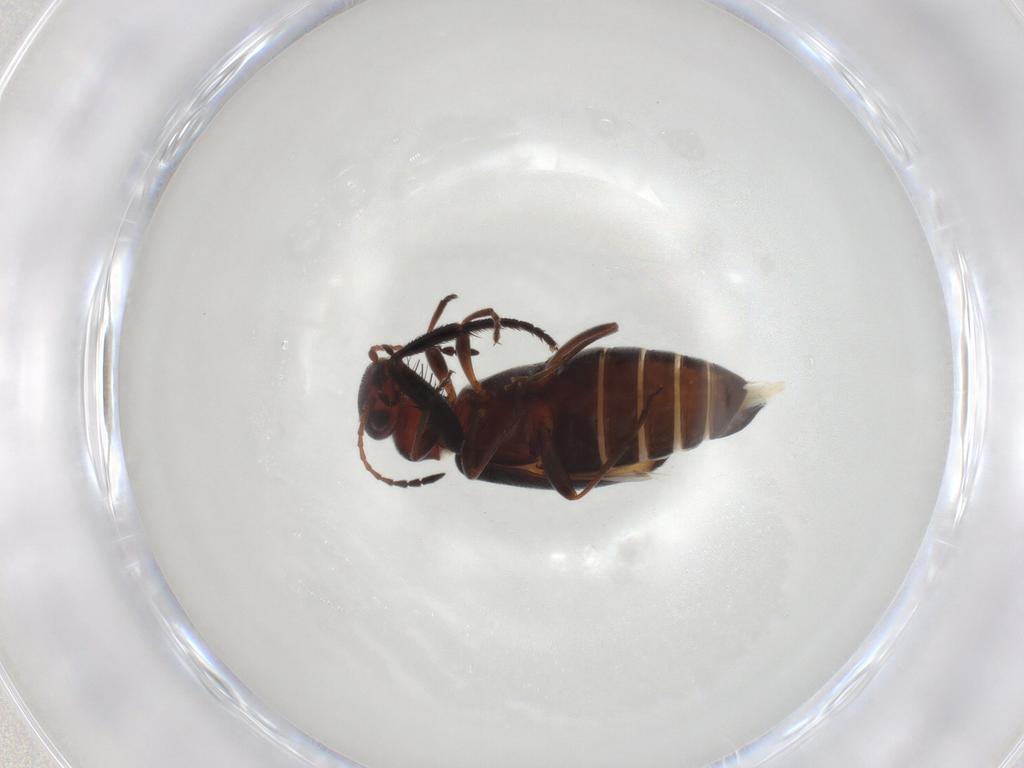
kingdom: Animalia
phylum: Arthropoda
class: Insecta
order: Coleoptera
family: Anthicidae
